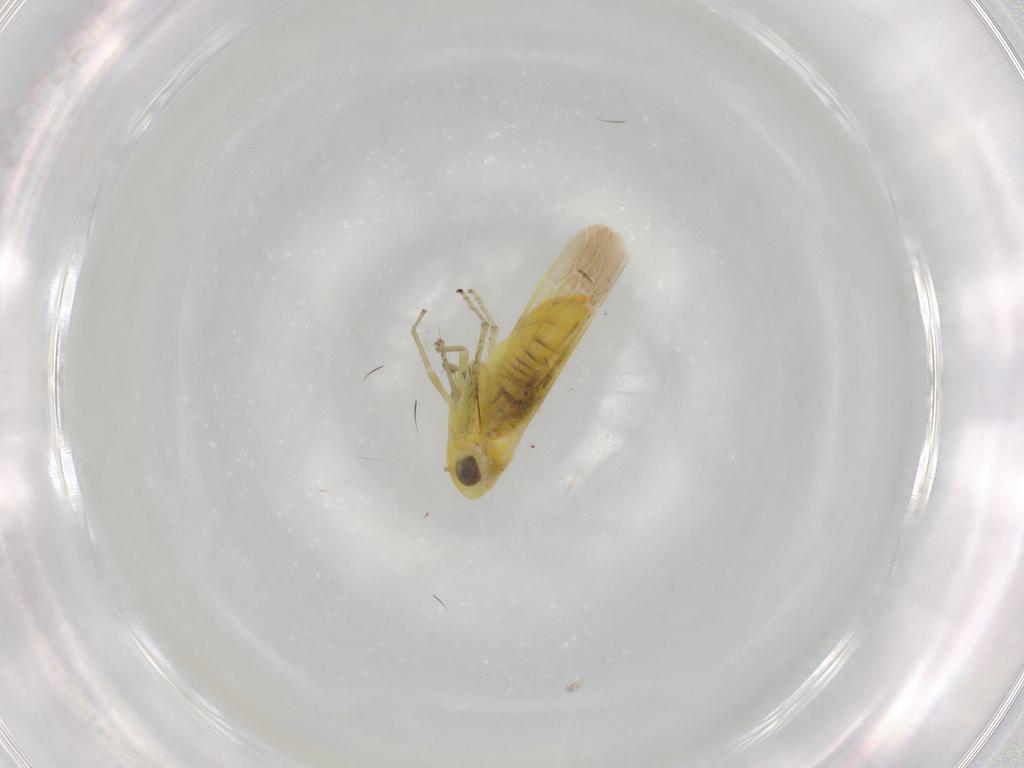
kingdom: Animalia
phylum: Arthropoda
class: Insecta
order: Hemiptera
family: Cicadellidae
